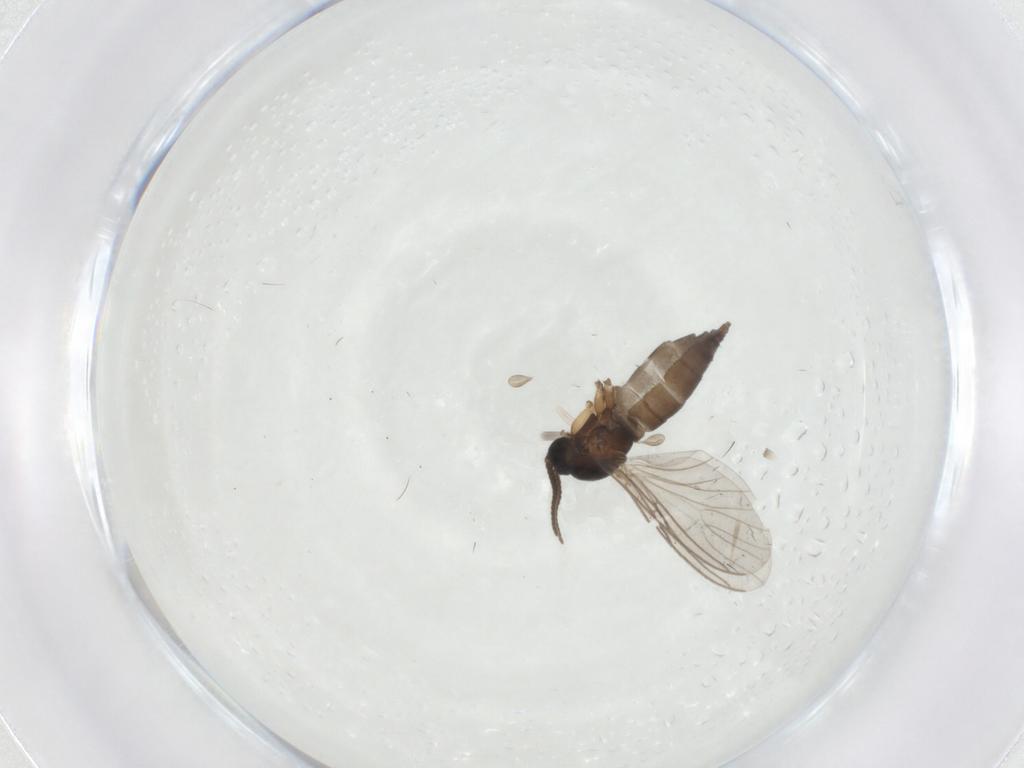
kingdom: Animalia
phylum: Arthropoda
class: Insecta
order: Diptera
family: Sciaridae
